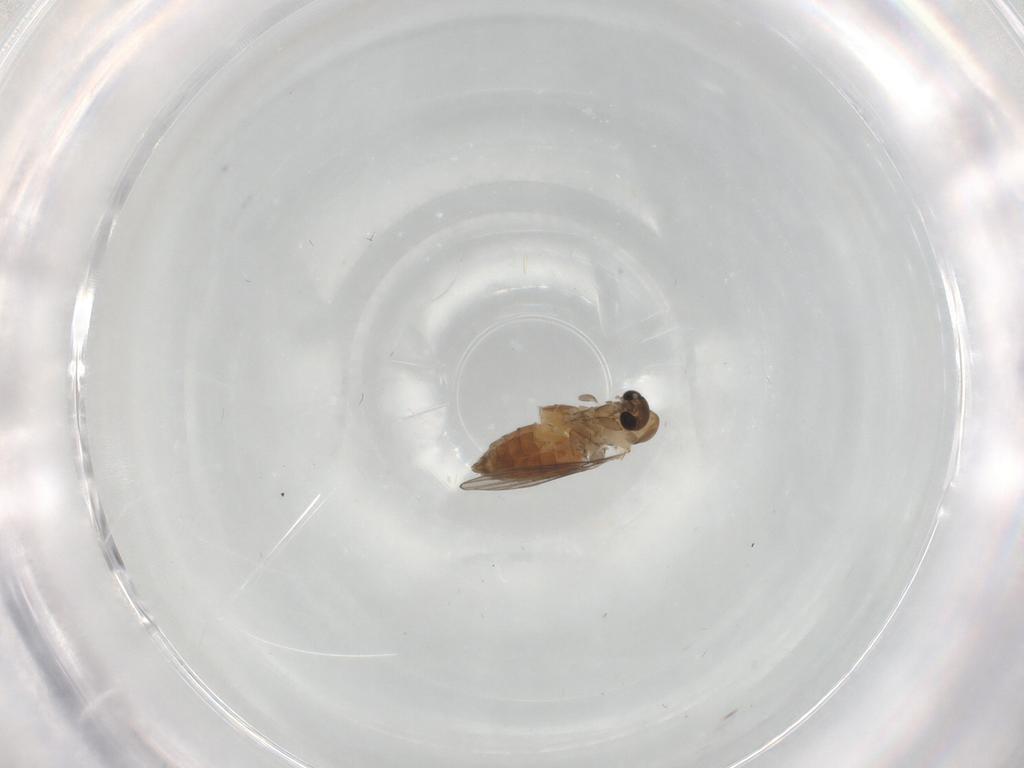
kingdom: Animalia
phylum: Arthropoda
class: Insecta
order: Diptera
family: Psychodidae
